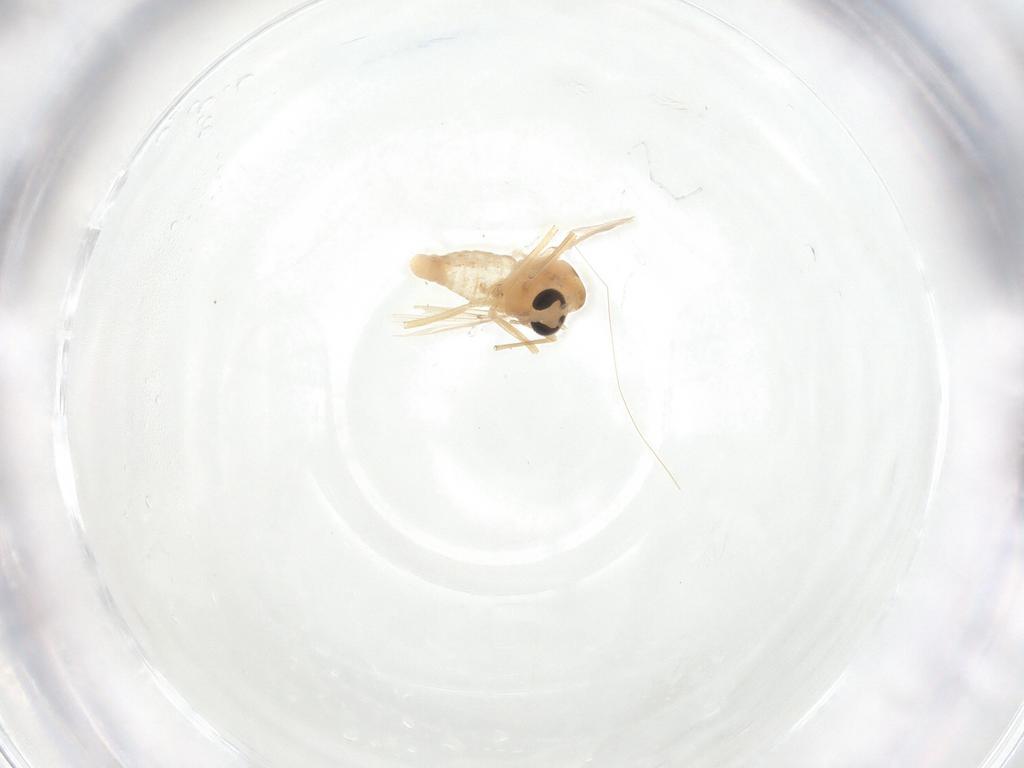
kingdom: Animalia
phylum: Arthropoda
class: Insecta
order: Diptera
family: Chironomidae
